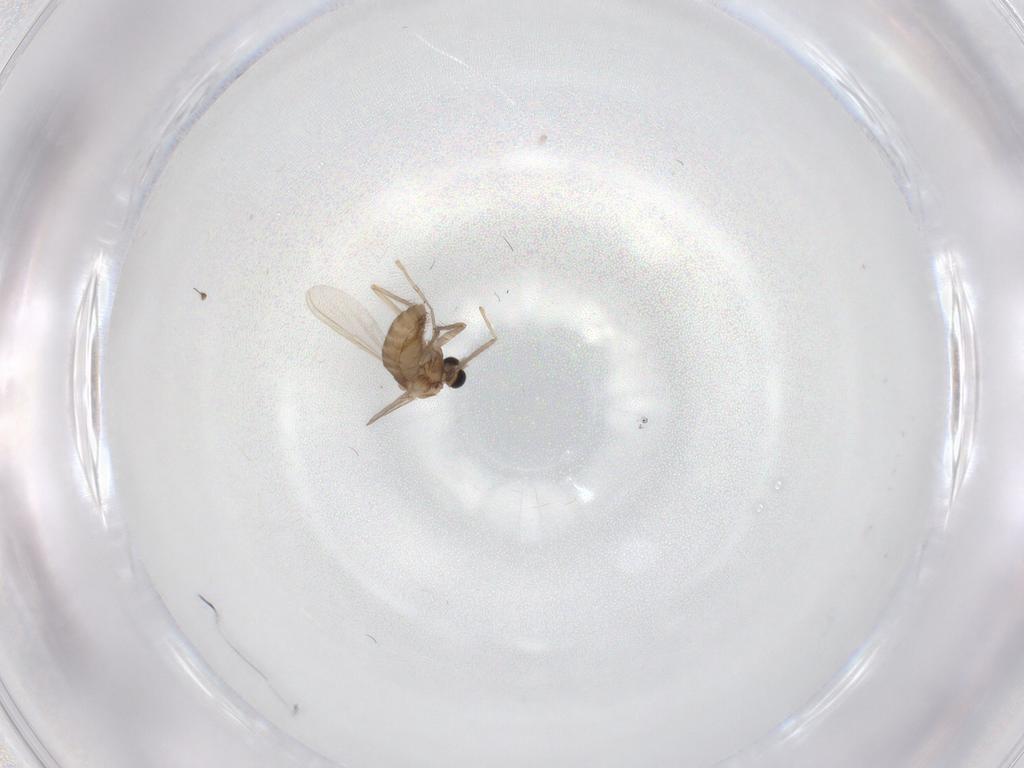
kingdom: Animalia
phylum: Arthropoda
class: Insecta
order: Diptera
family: Chironomidae
